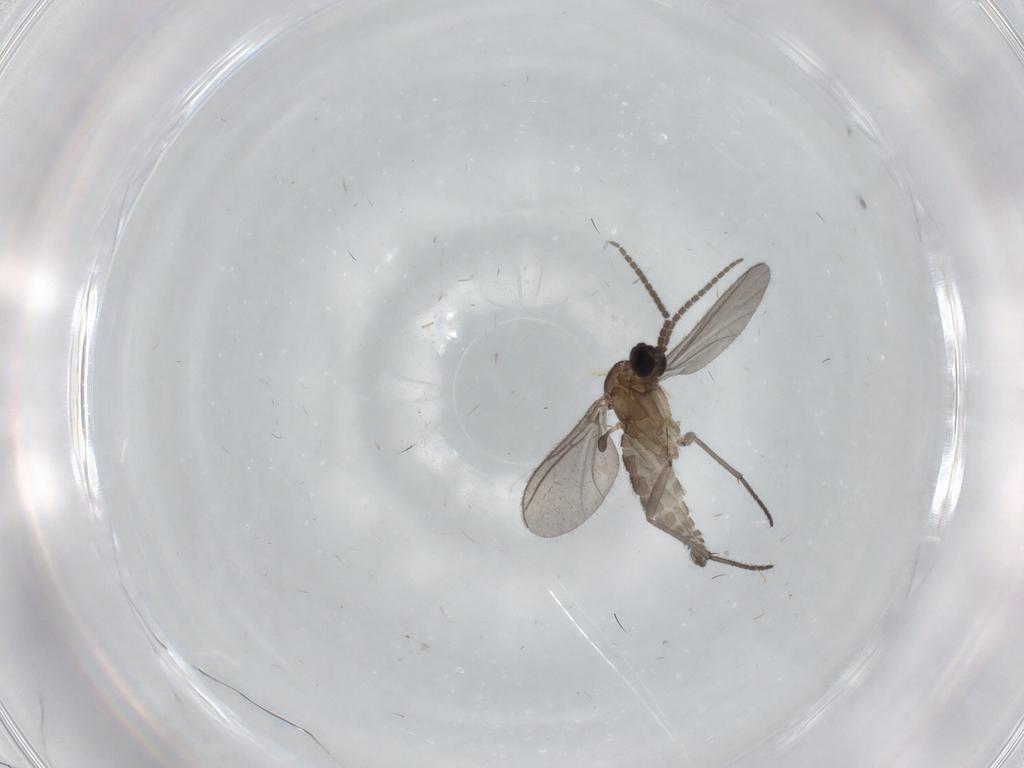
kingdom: Animalia
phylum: Arthropoda
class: Insecta
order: Diptera
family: Sciaridae
